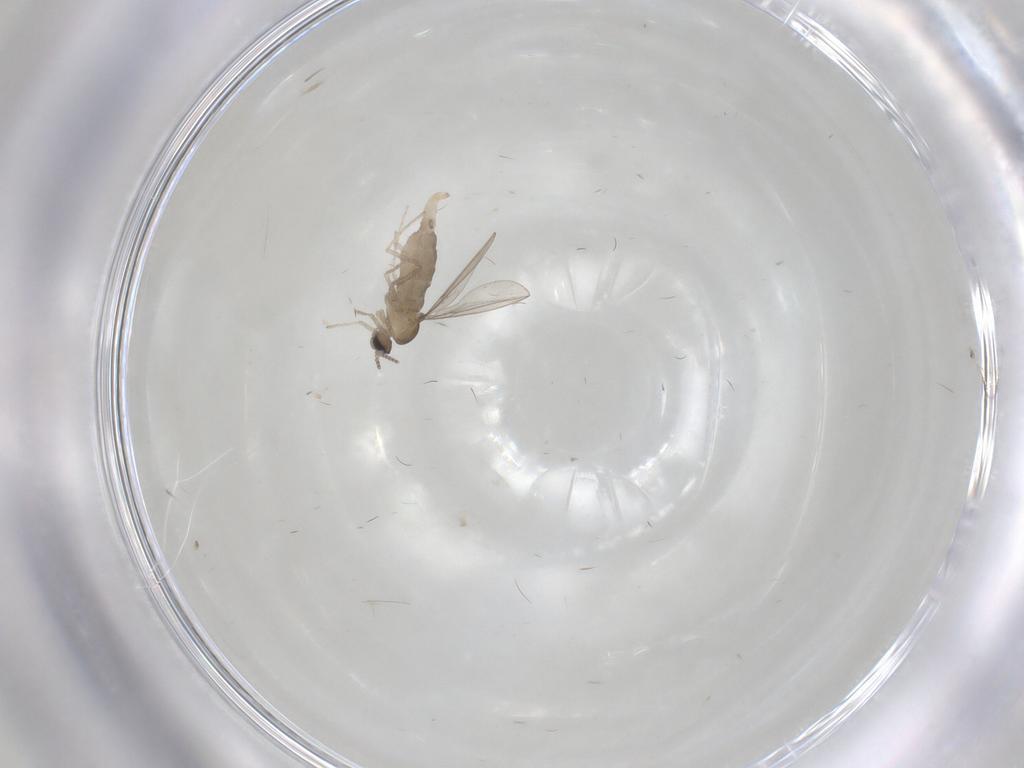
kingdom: Animalia
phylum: Arthropoda
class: Insecta
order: Diptera
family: Cecidomyiidae
